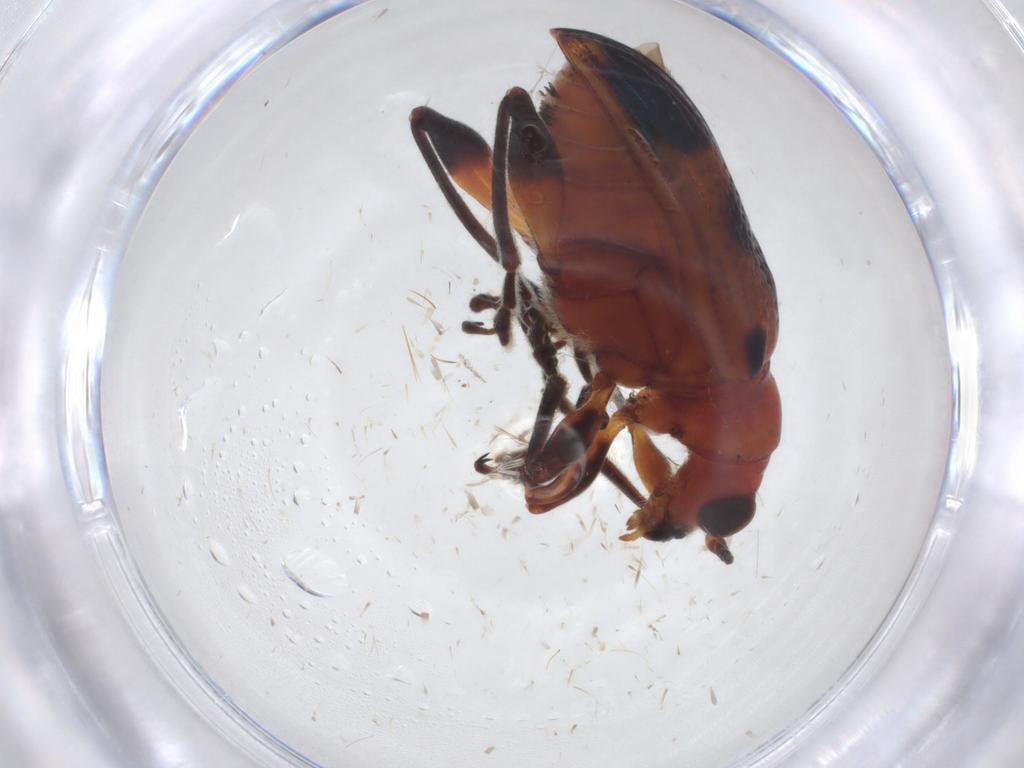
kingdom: Animalia
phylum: Arthropoda
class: Insecta
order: Coleoptera
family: Chrysomelidae
